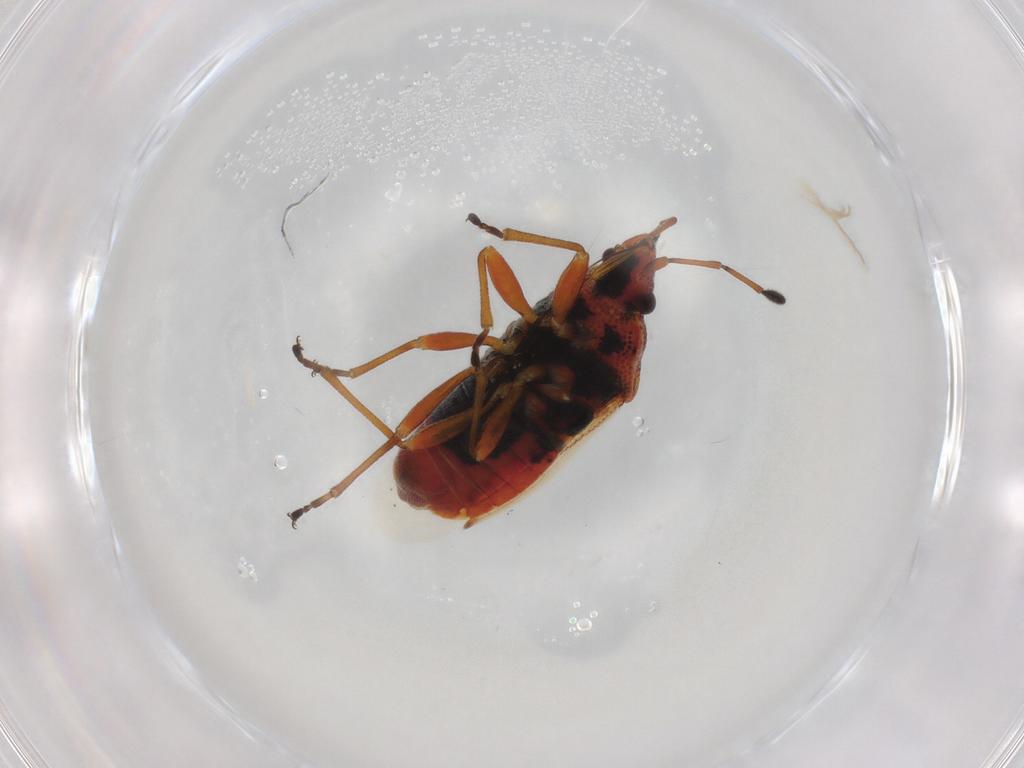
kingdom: Animalia
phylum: Arthropoda
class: Insecta
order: Hemiptera
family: Lygaeidae
